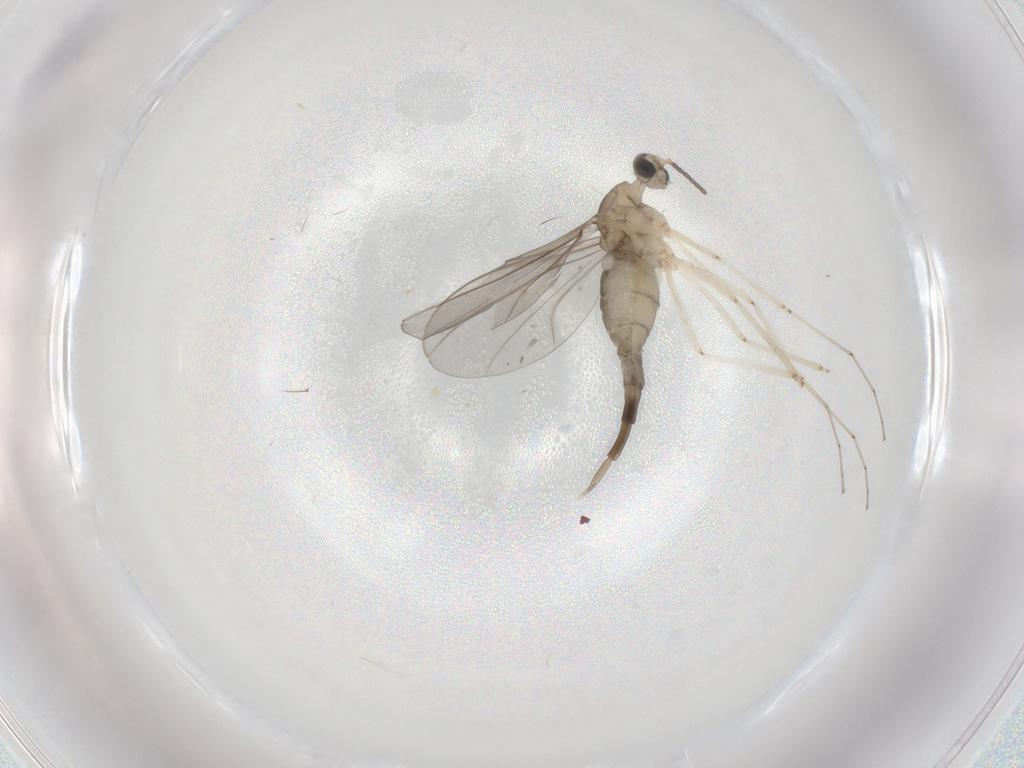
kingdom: Animalia
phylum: Arthropoda
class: Insecta
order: Diptera
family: Cecidomyiidae
